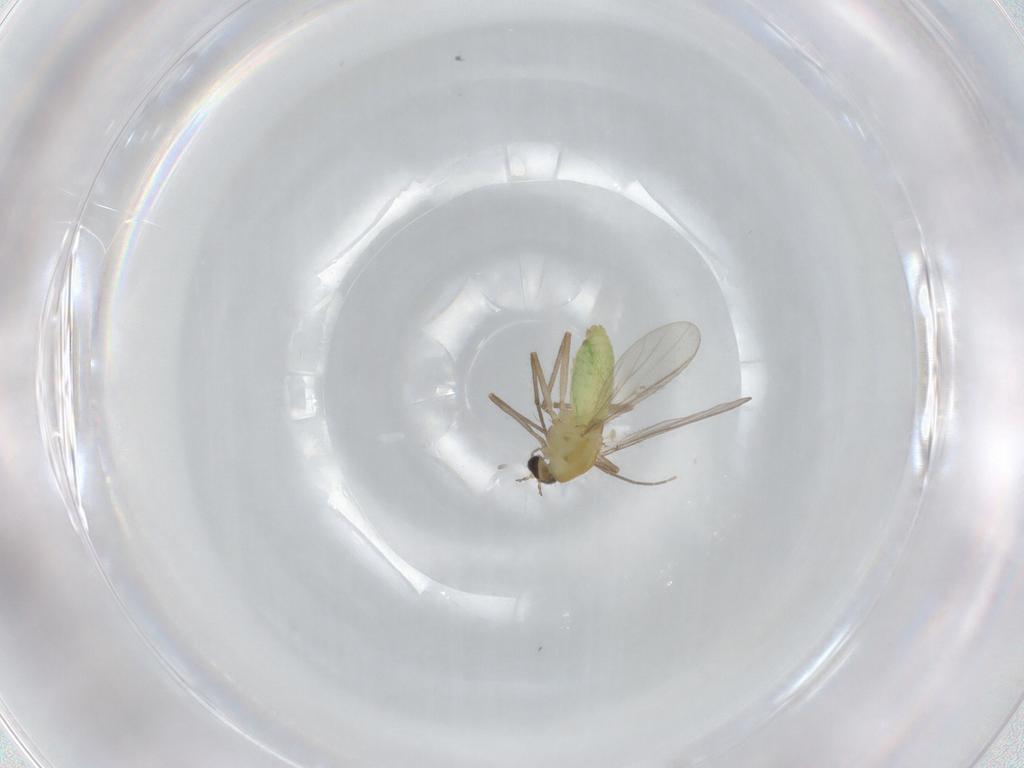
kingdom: Animalia
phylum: Arthropoda
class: Insecta
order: Diptera
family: Chironomidae
